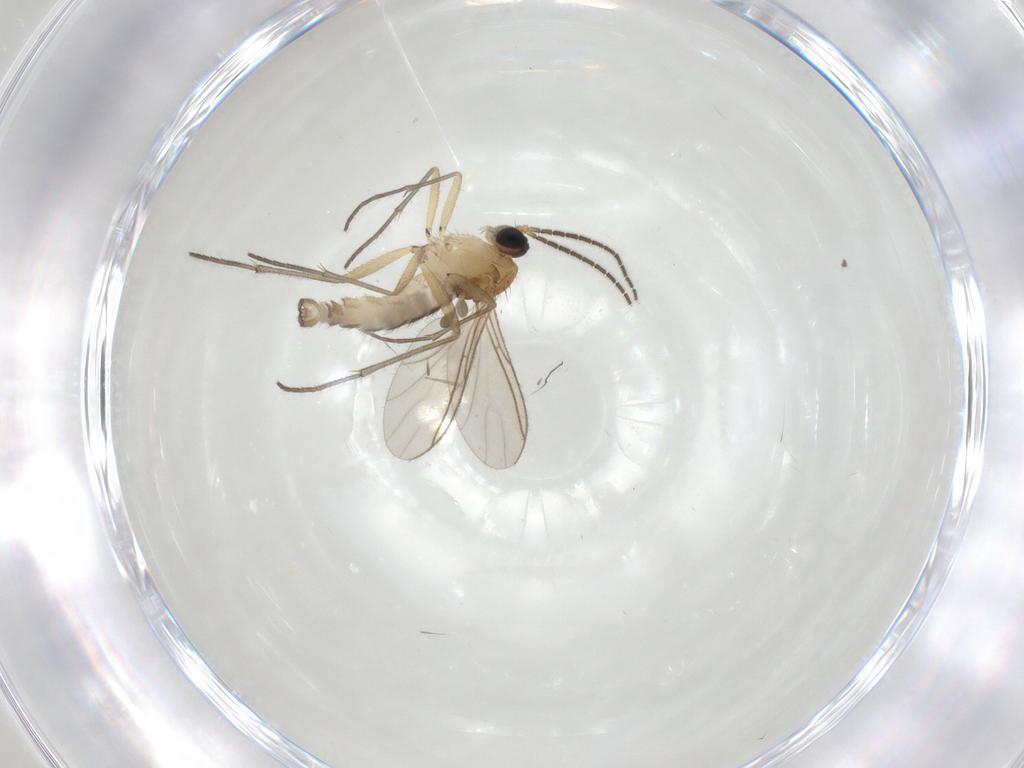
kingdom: Animalia
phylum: Arthropoda
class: Insecta
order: Diptera
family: Sciaridae
